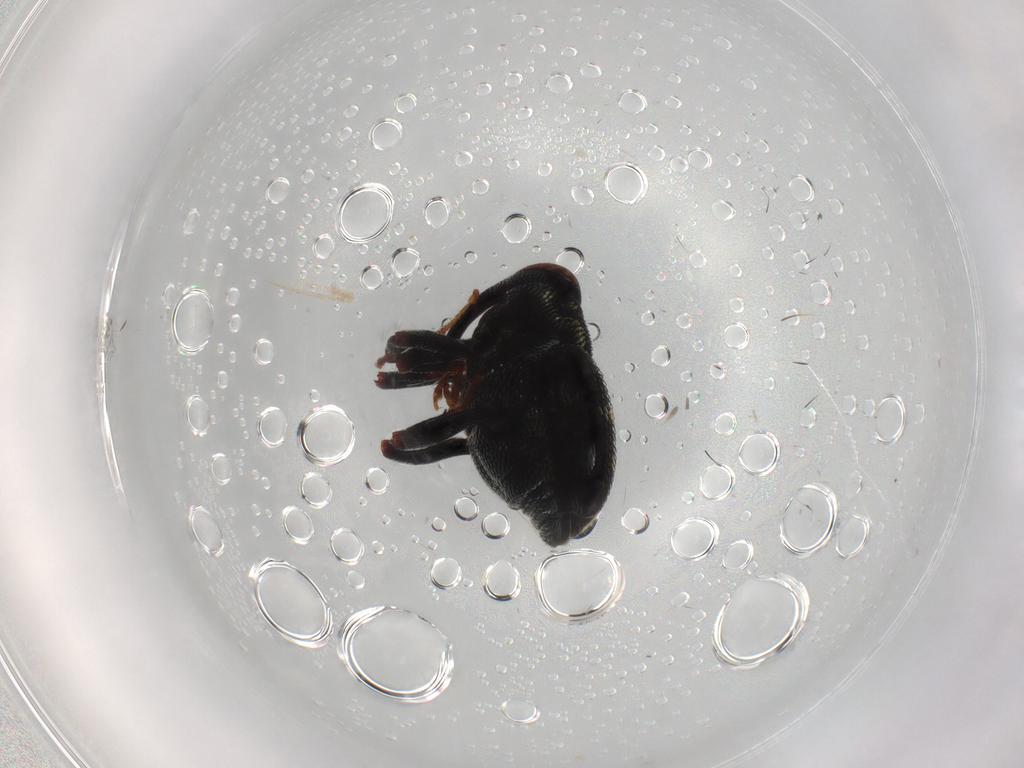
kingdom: Animalia
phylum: Arthropoda
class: Insecta
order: Coleoptera
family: Curculionidae
